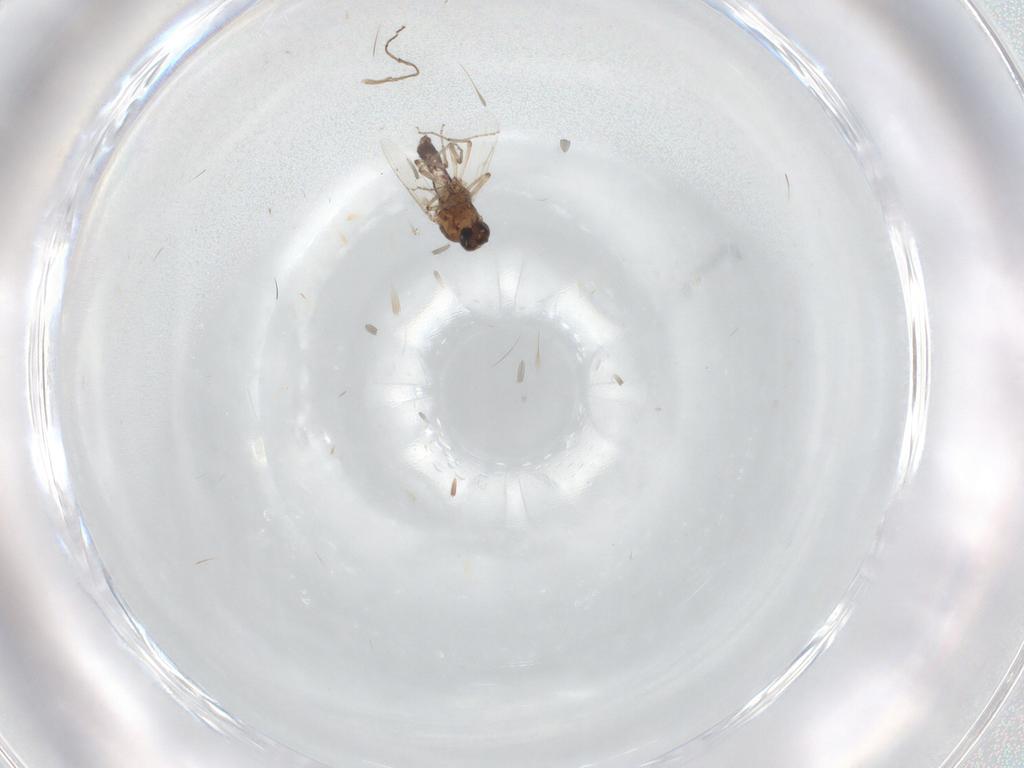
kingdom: Animalia
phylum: Arthropoda
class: Insecta
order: Diptera
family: Ceratopogonidae
